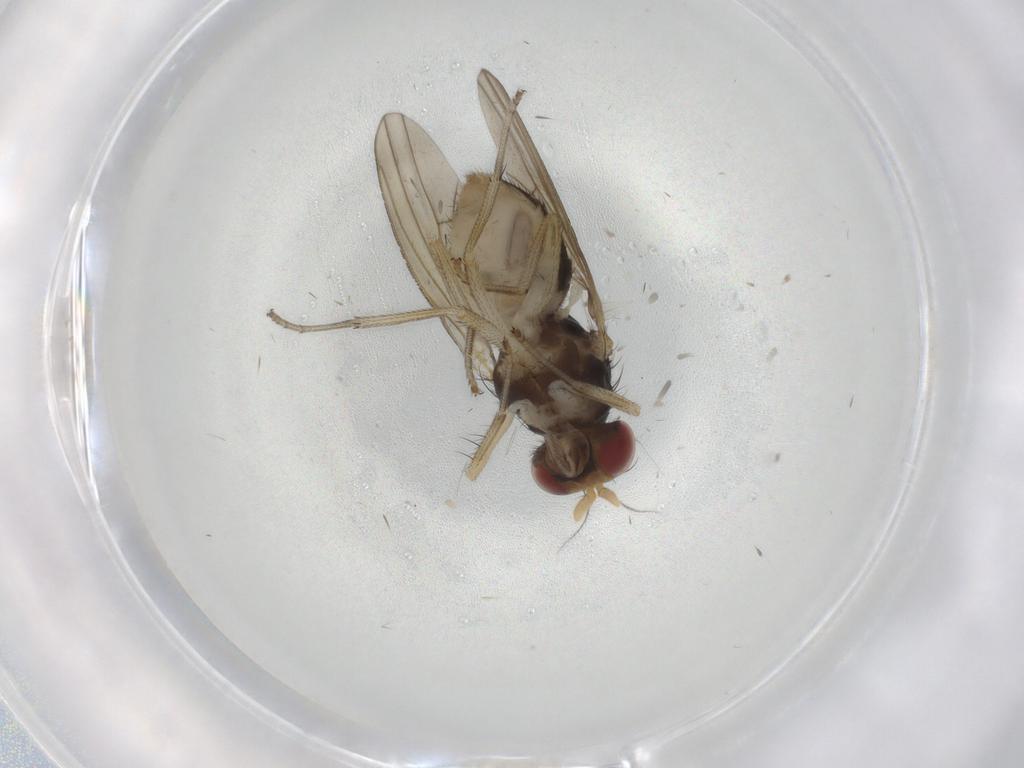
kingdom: Animalia
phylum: Arthropoda
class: Insecta
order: Diptera
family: Lauxaniidae
